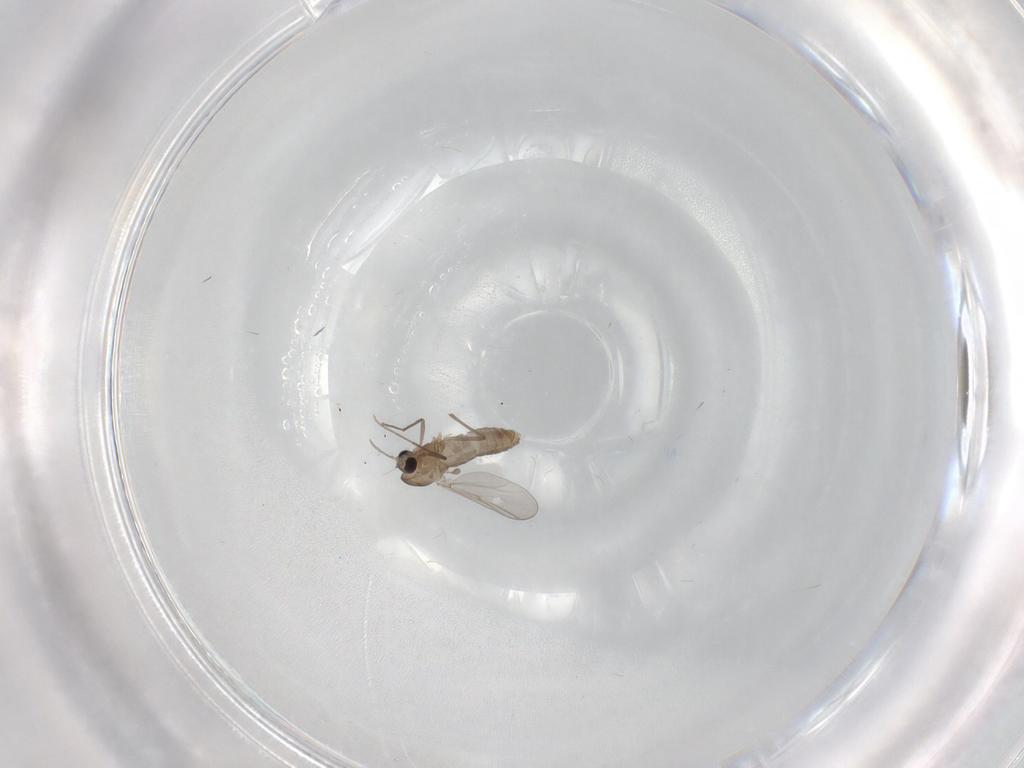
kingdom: Animalia
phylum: Arthropoda
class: Insecta
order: Diptera
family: Chironomidae
